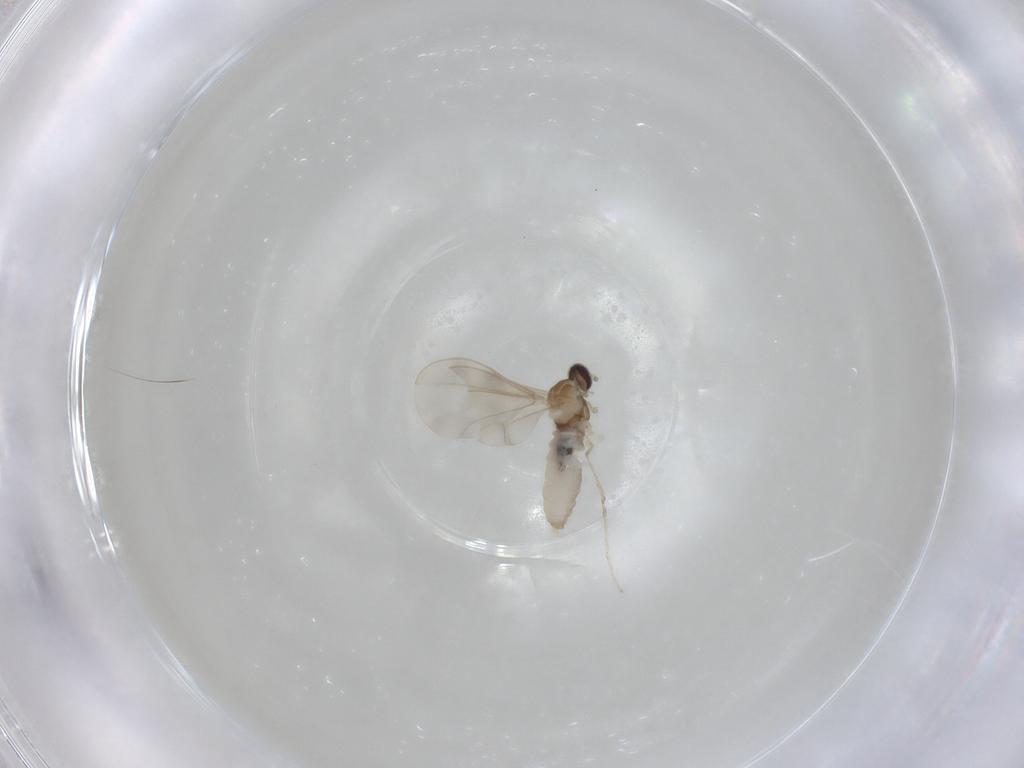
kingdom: Animalia
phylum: Arthropoda
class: Insecta
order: Diptera
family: Cecidomyiidae
